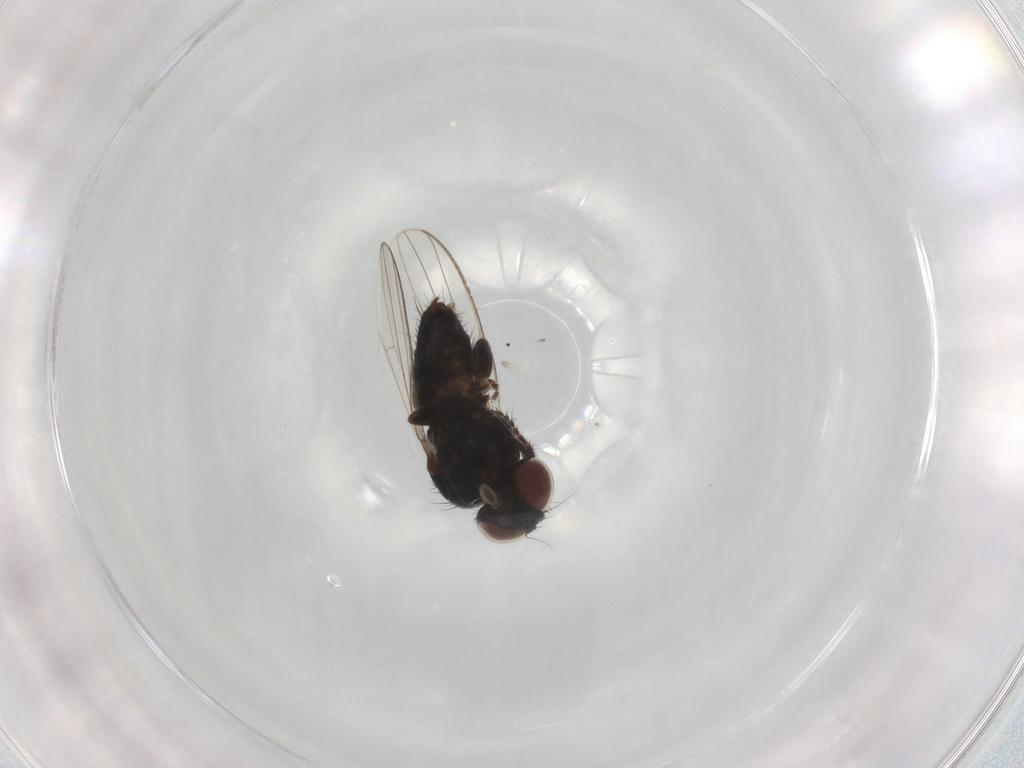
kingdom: Animalia
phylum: Arthropoda
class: Insecta
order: Diptera
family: Milichiidae
